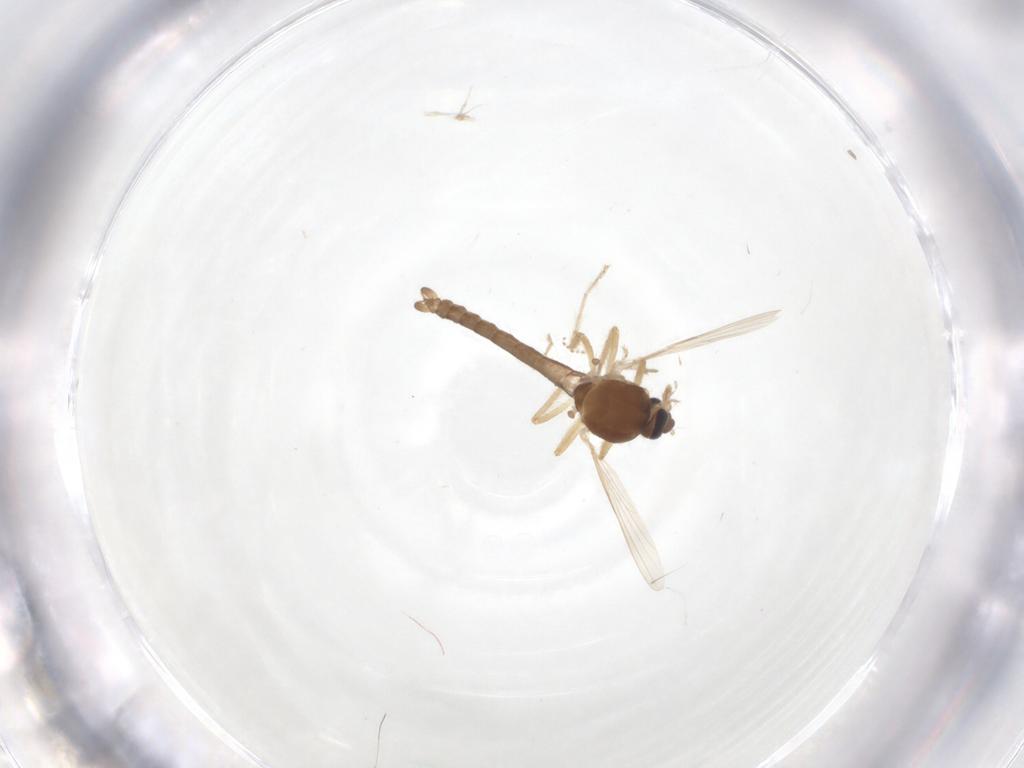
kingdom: Animalia
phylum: Arthropoda
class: Insecta
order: Diptera
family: Ceratopogonidae
